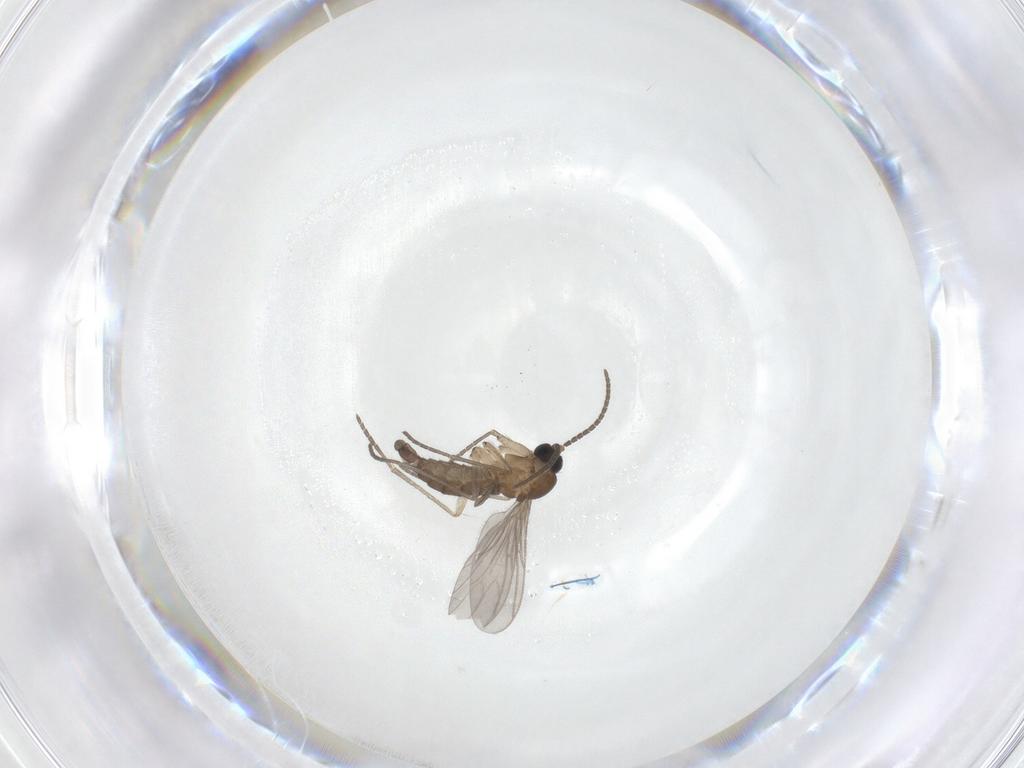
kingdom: Animalia
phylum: Arthropoda
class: Insecta
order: Diptera
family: Sciaridae
